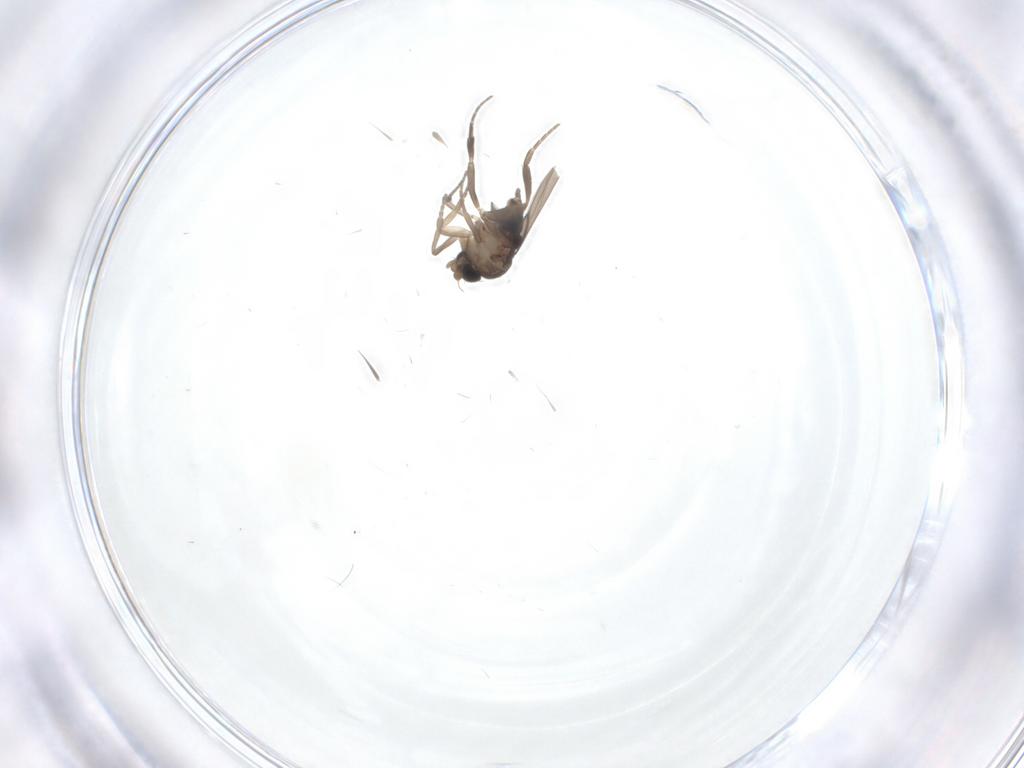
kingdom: Animalia
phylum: Arthropoda
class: Insecta
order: Diptera
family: Phoridae
